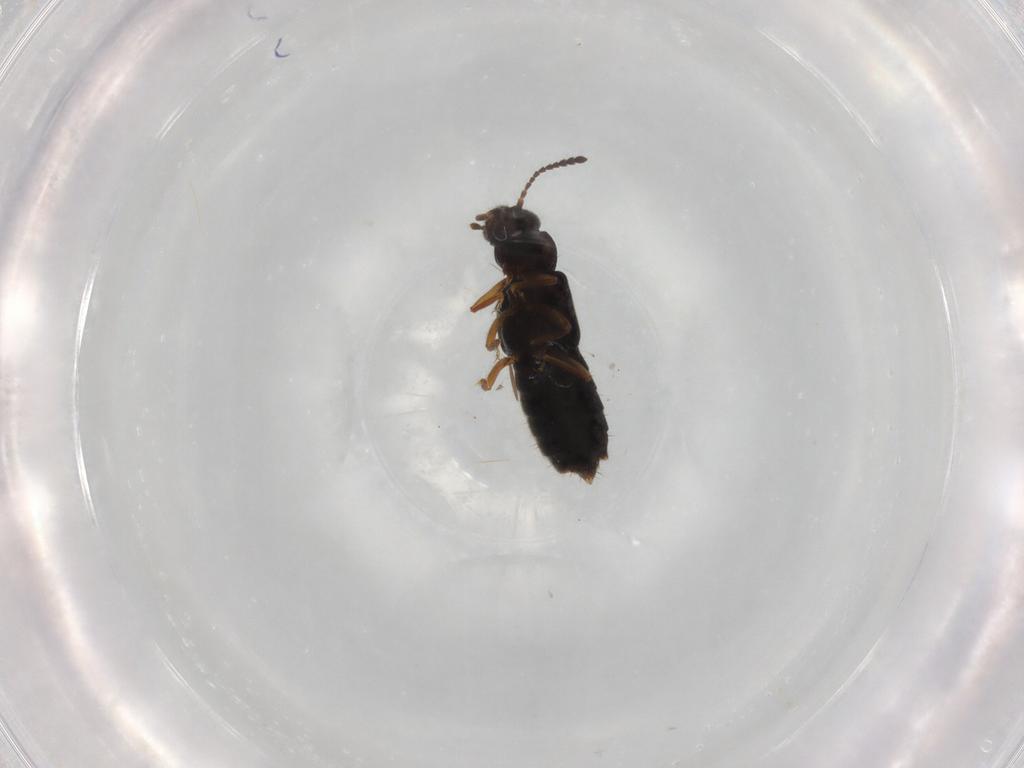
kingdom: Animalia
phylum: Arthropoda
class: Insecta
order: Coleoptera
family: Staphylinidae
